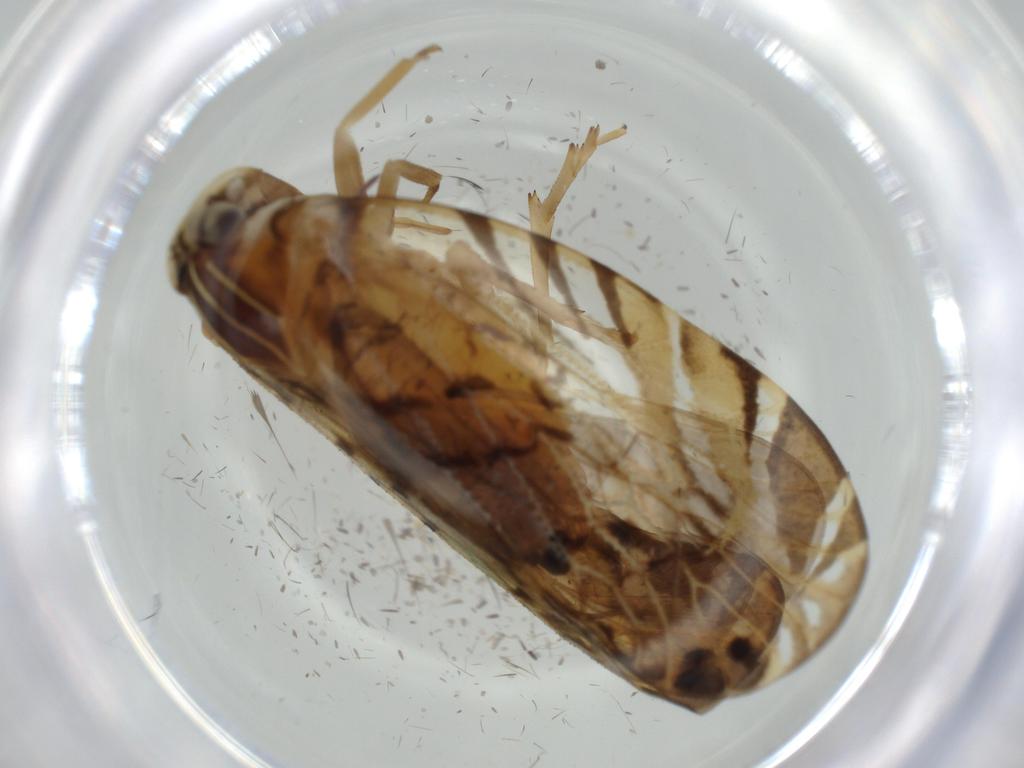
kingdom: Animalia
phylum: Arthropoda
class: Insecta
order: Hemiptera
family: Cixiidae
